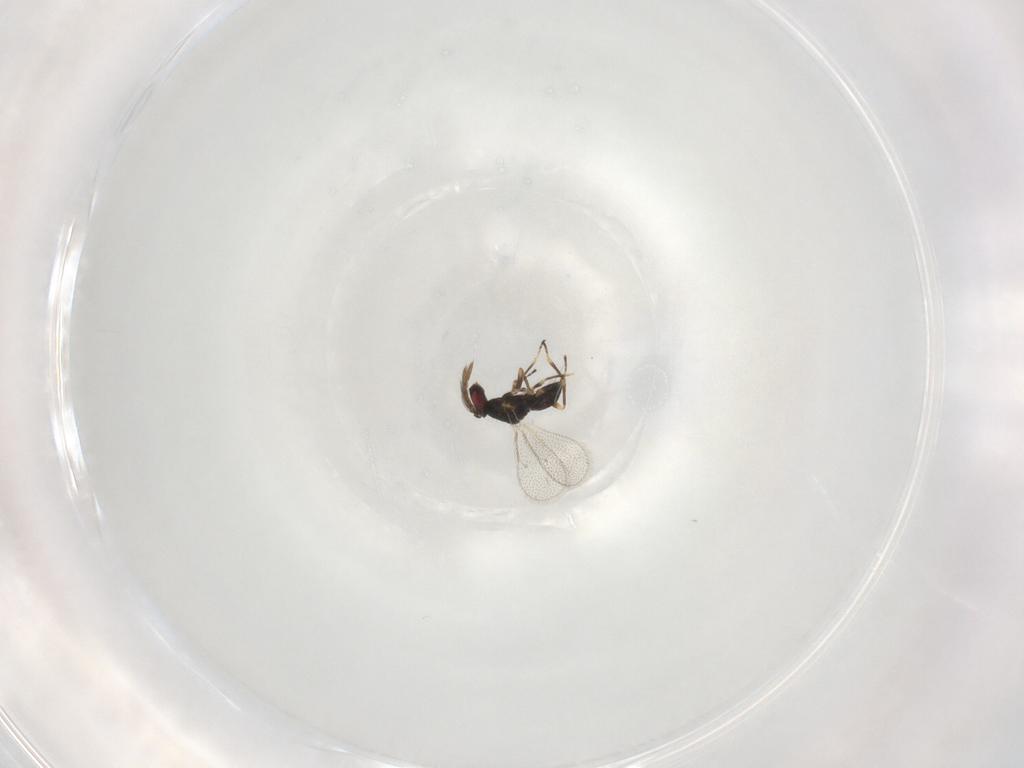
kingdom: Animalia
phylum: Arthropoda
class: Insecta
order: Hymenoptera
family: Eulophidae
